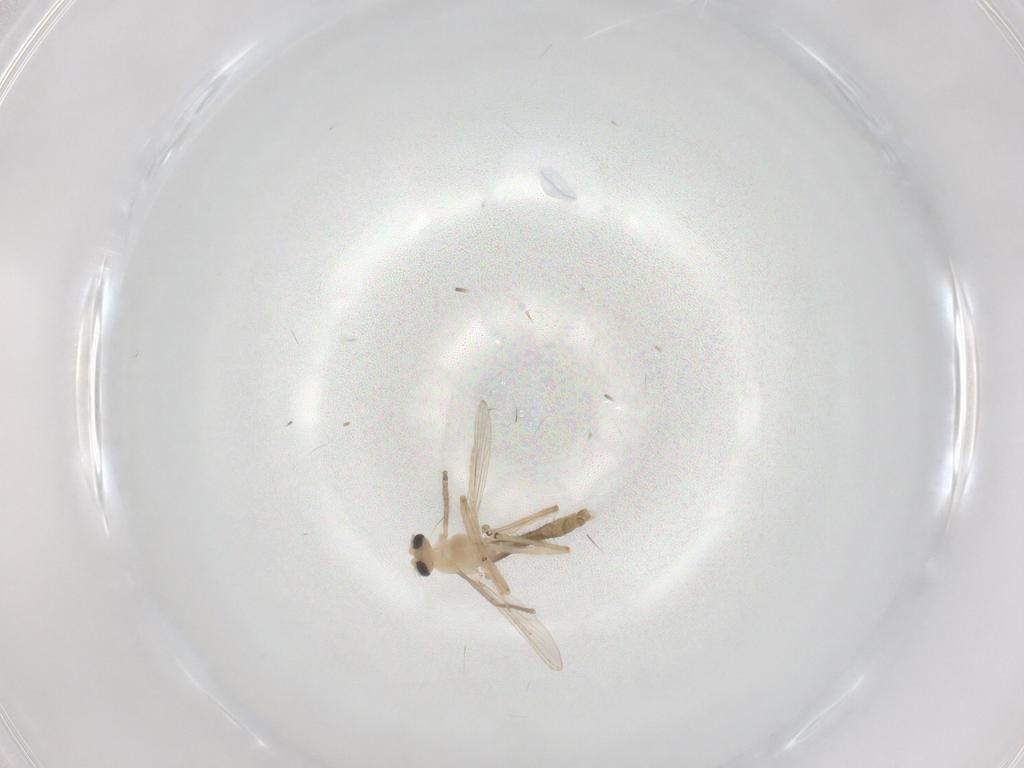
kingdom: Animalia
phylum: Arthropoda
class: Insecta
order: Diptera
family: Chironomidae
